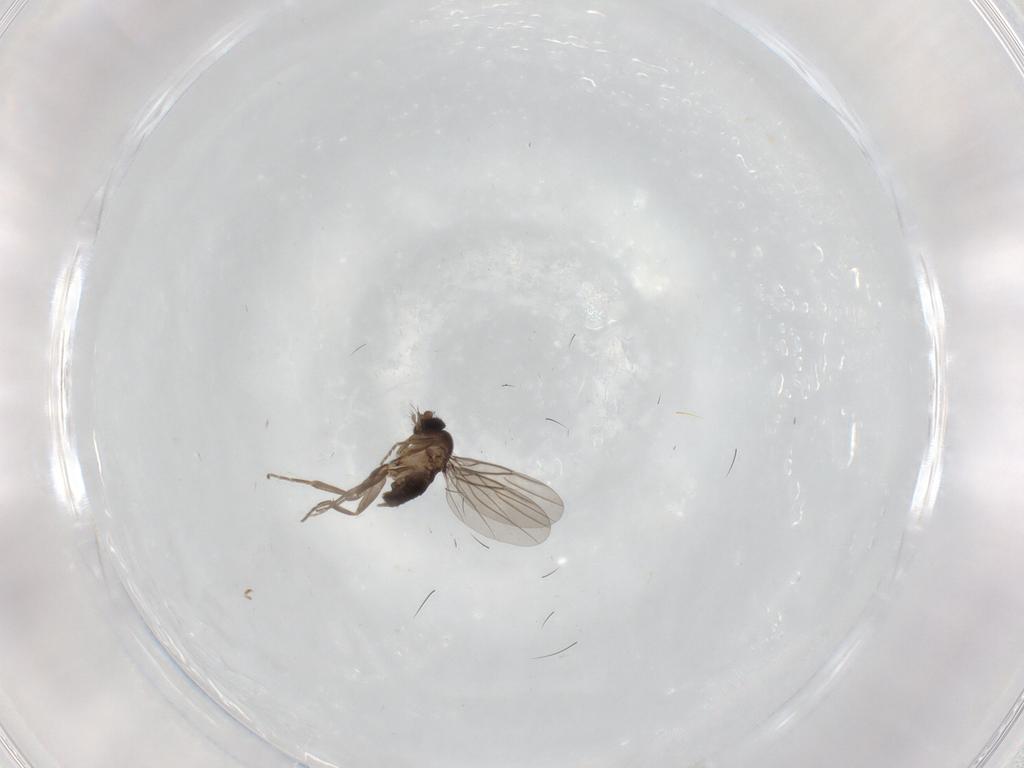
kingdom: Animalia
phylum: Arthropoda
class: Insecta
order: Diptera
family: Phoridae
